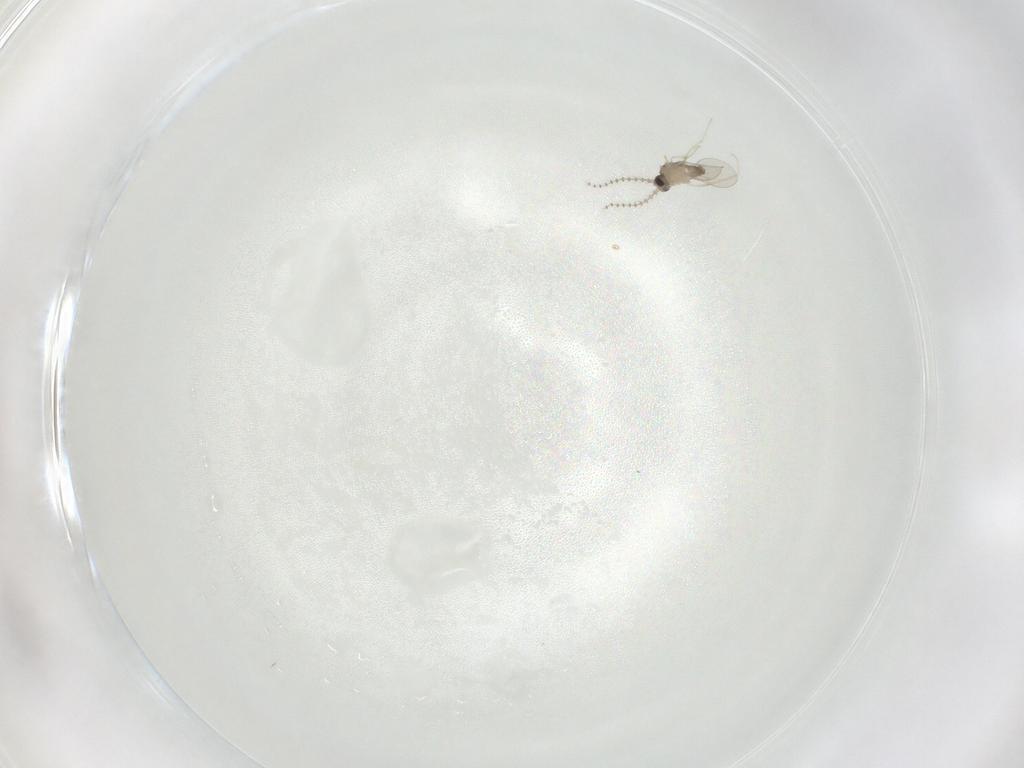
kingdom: Animalia
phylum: Arthropoda
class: Insecta
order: Diptera
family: Cecidomyiidae
